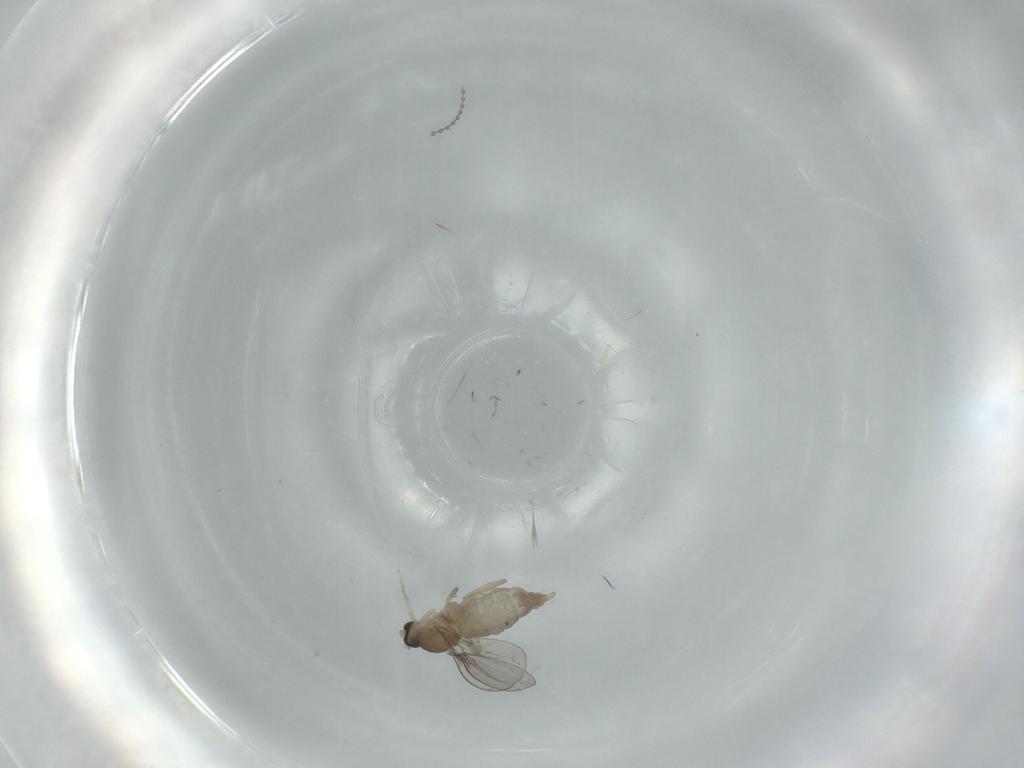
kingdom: Animalia
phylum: Arthropoda
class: Insecta
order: Diptera
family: Cecidomyiidae
